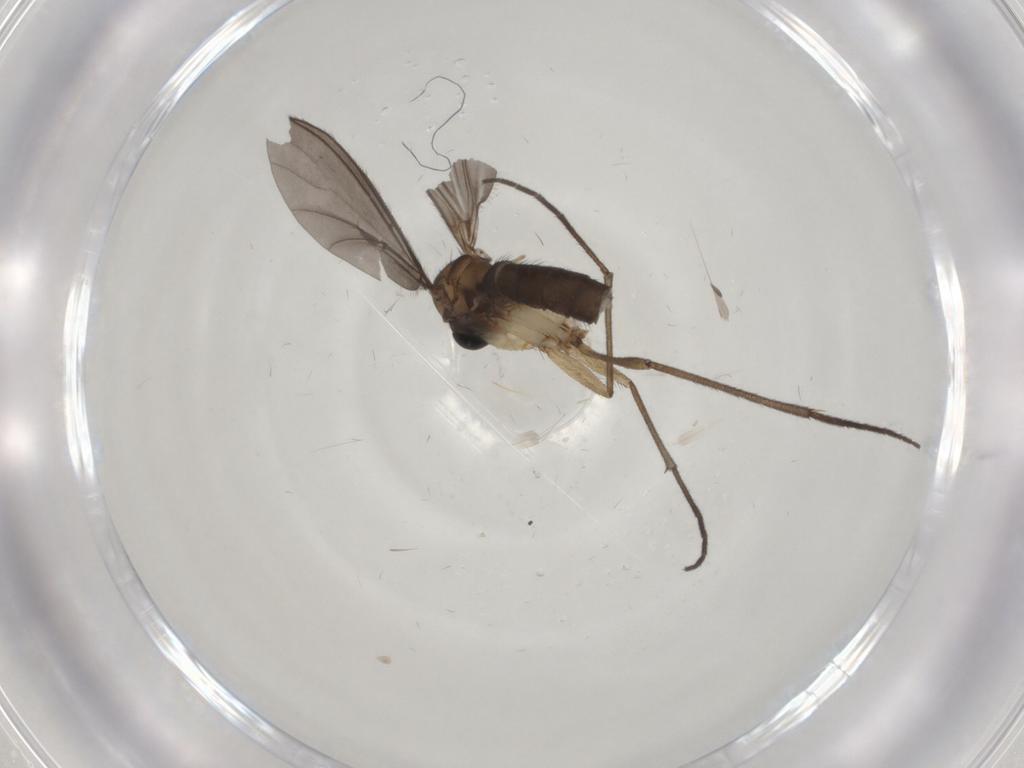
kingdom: Animalia
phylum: Arthropoda
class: Insecta
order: Diptera
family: Sciaridae
